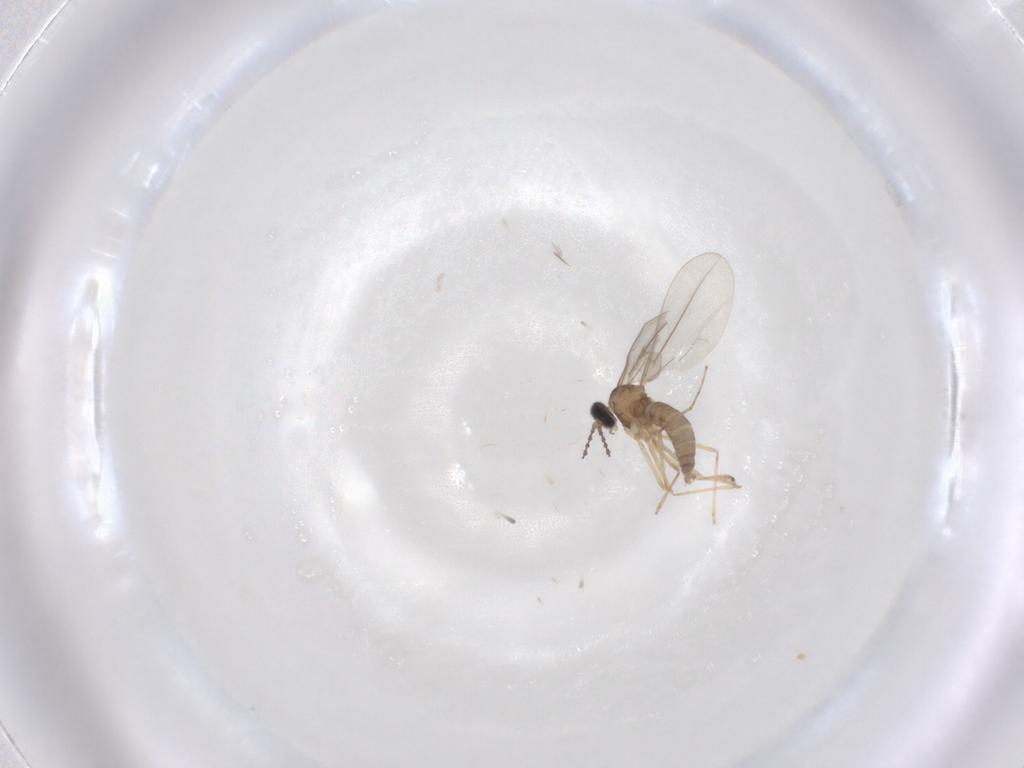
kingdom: Animalia
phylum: Arthropoda
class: Insecta
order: Diptera
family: Cecidomyiidae
